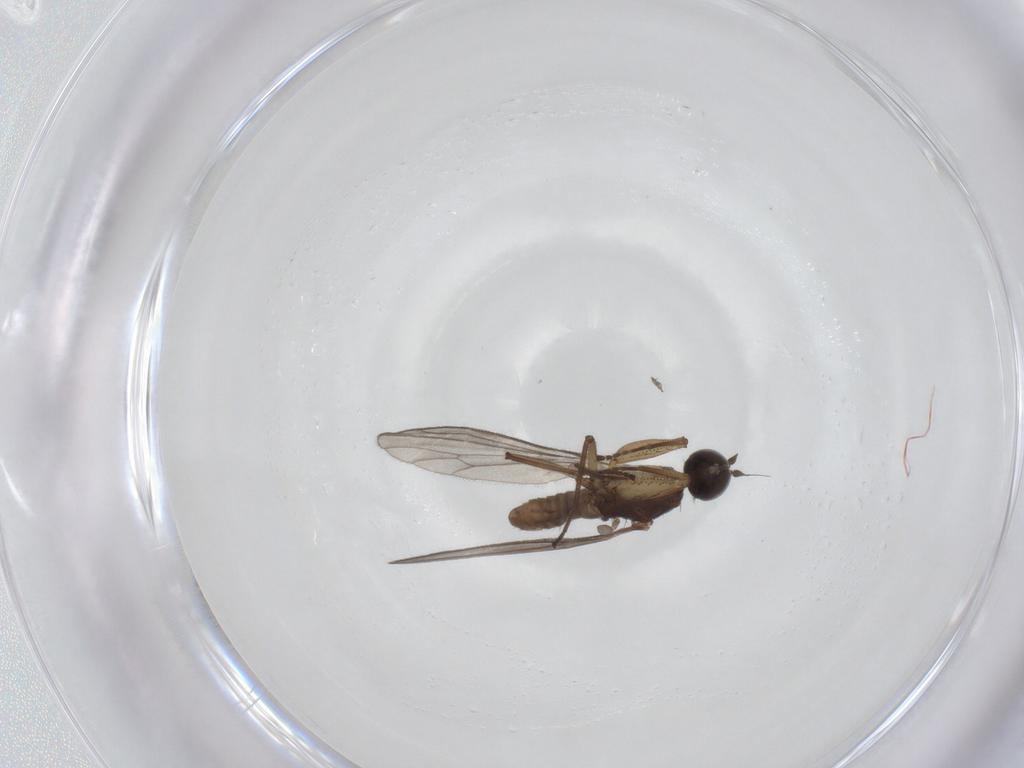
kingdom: Animalia
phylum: Arthropoda
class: Insecta
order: Diptera
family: Empididae
